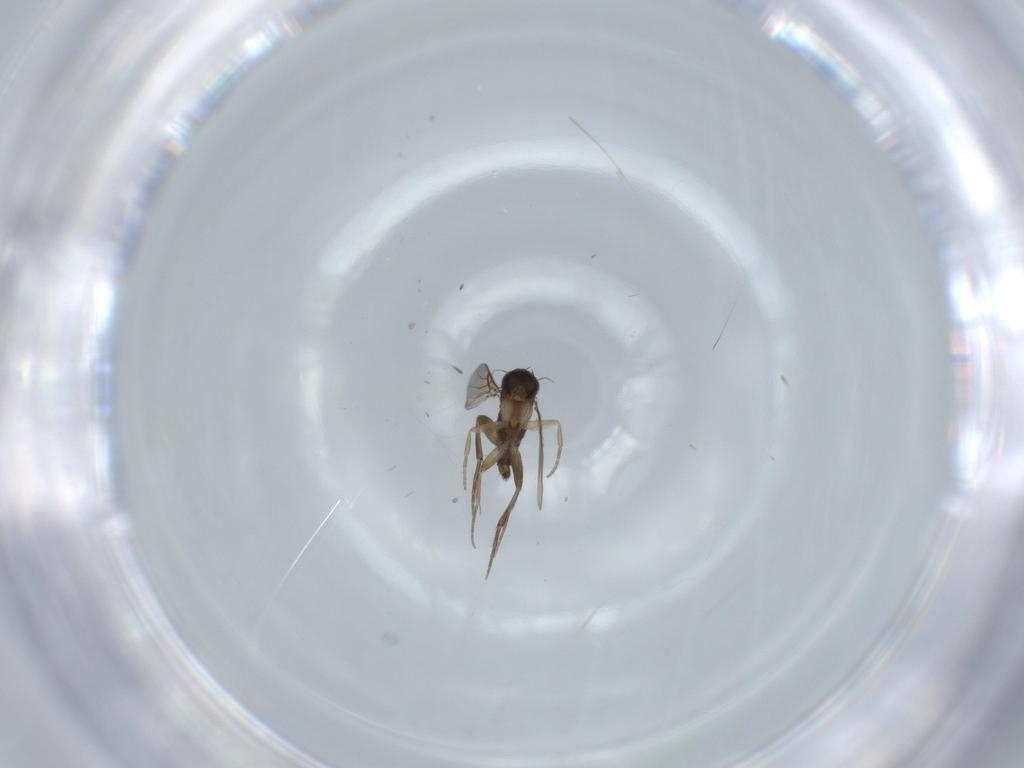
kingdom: Animalia
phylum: Arthropoda
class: Insecta
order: Diptera
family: Phoridae
